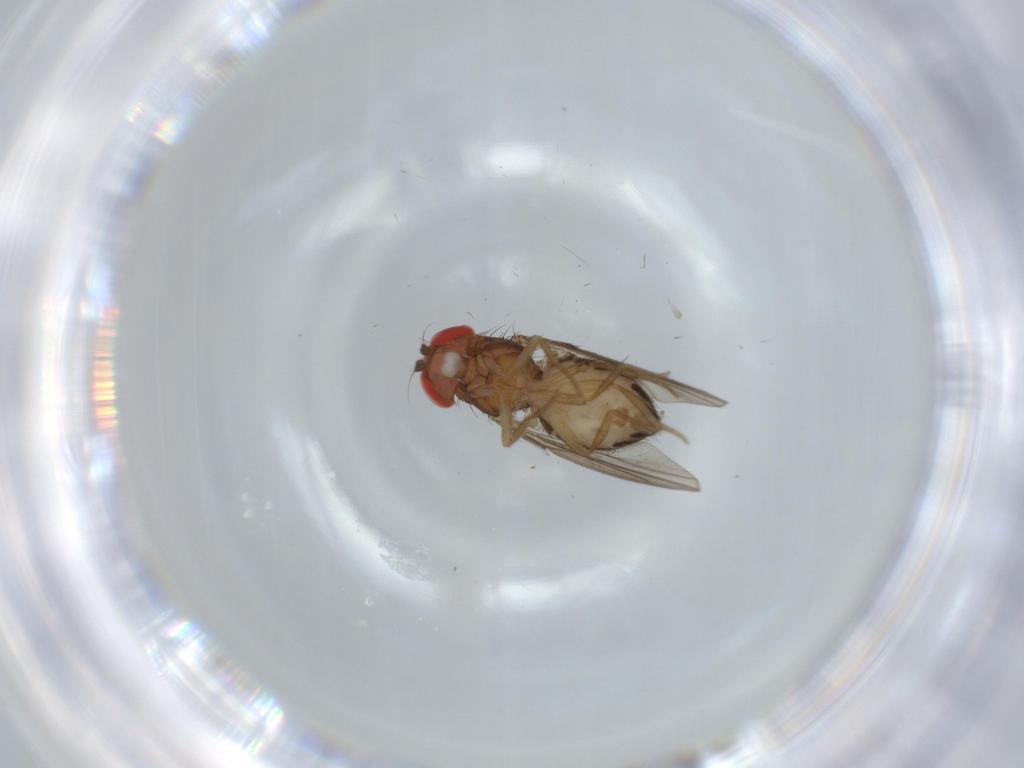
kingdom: Animalia
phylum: Arthropoda
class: Insecta
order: Diptera
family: Drosophilidae
